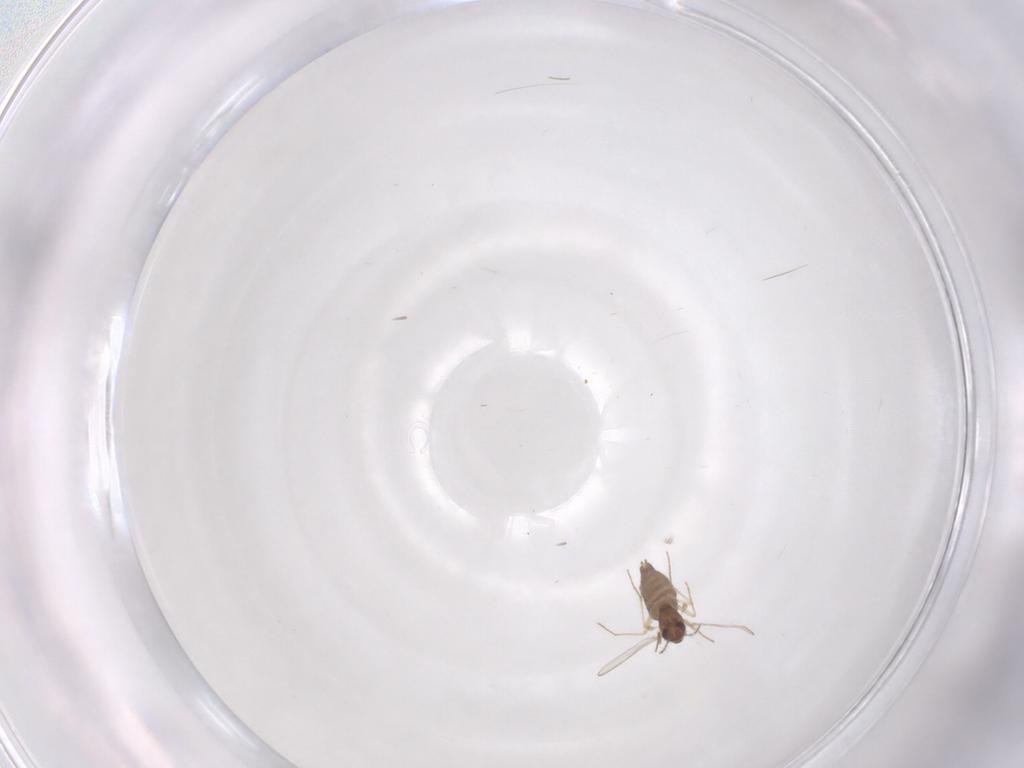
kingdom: Animalia
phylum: Arthropoda
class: Insecta
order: Diptera
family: Chironomidae
